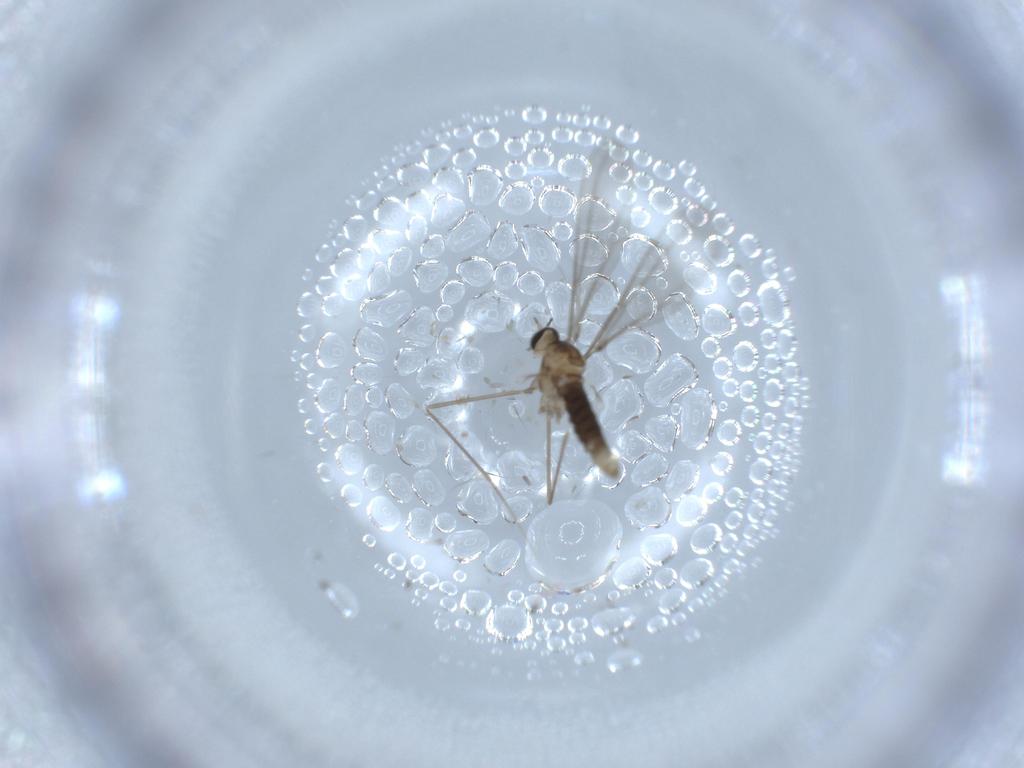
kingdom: Animalia
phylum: Arthropoda
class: Insecta
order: Diptera
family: Cecidomyiidae
